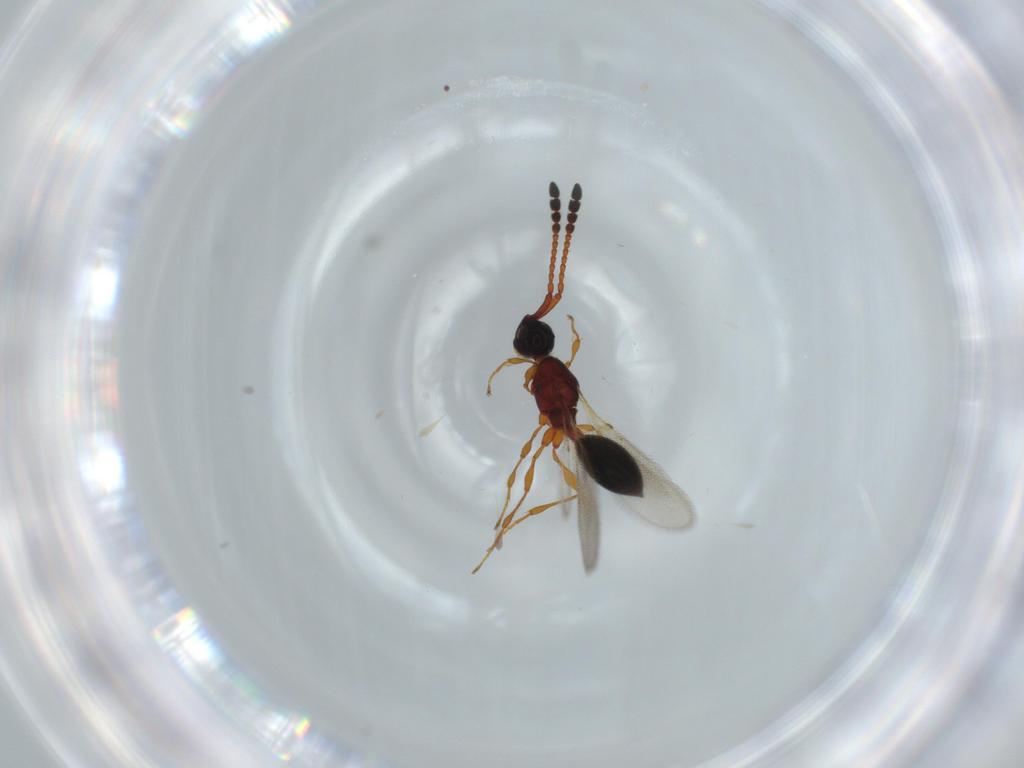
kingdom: Animalia
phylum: Arthropoda
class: Insecta
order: Hymenoptera
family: Diapriidae
